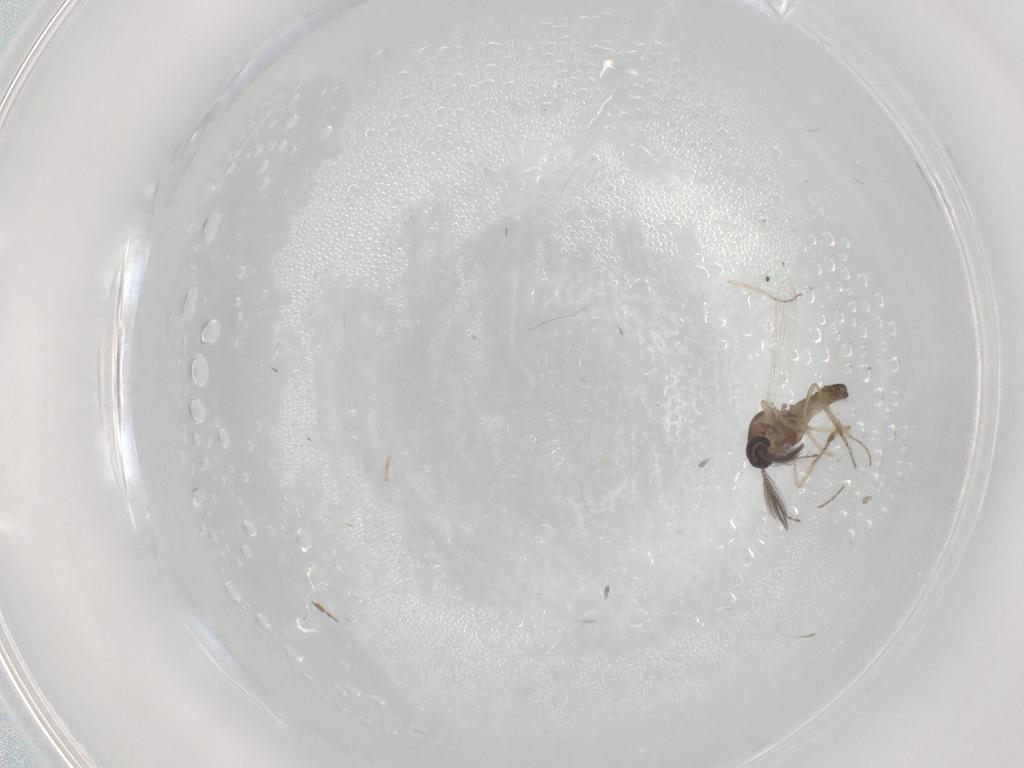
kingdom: Animalia
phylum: Arthropoda
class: Insecta
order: Diptera
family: Ceratopogonidae
